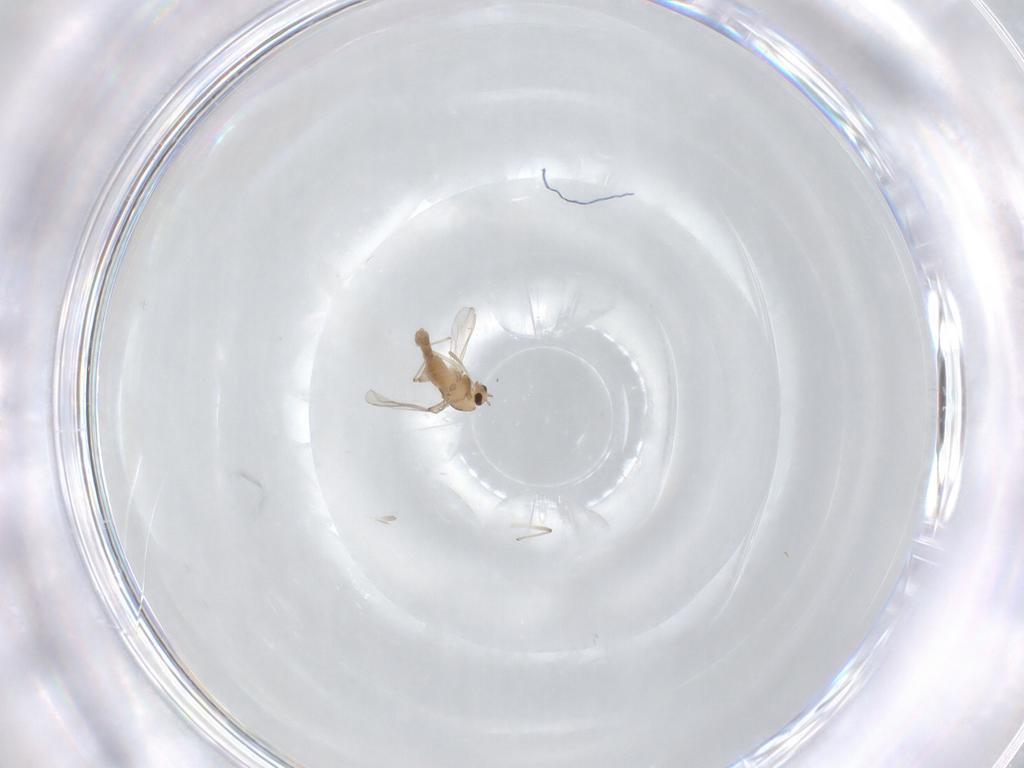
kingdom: Animalia
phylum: Arthropoda
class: Insecta
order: Diptera
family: Chironomidae
